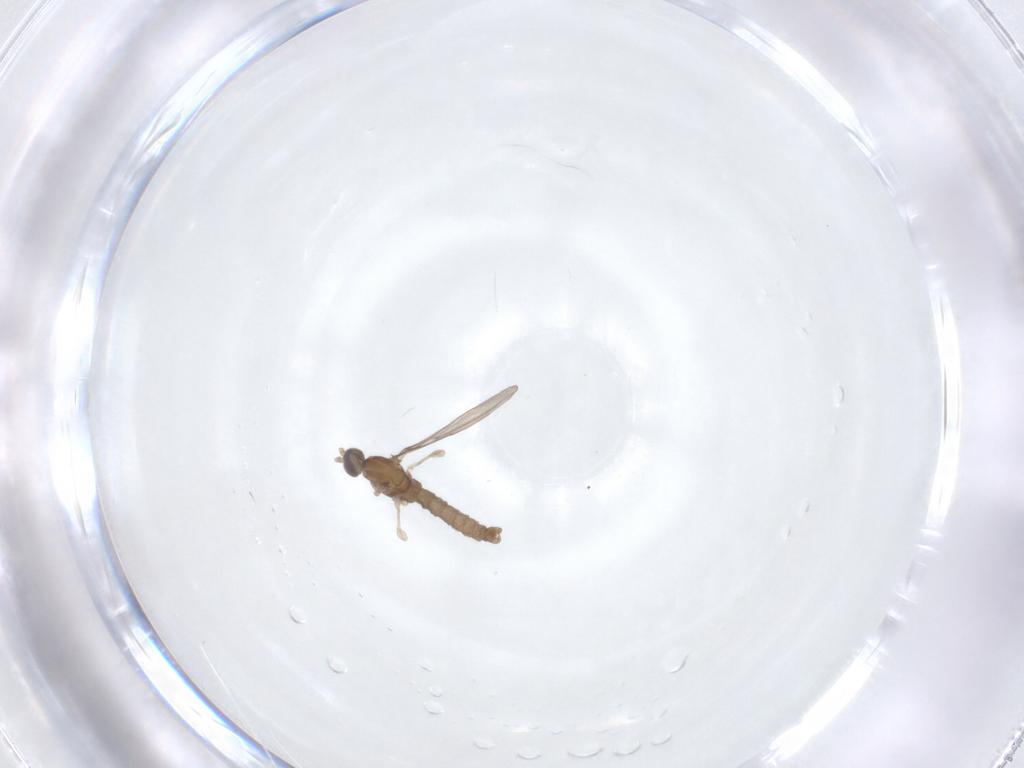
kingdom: Animalia
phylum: Arthropoda
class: Insecta
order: Diptera
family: Cecidomyiidae
